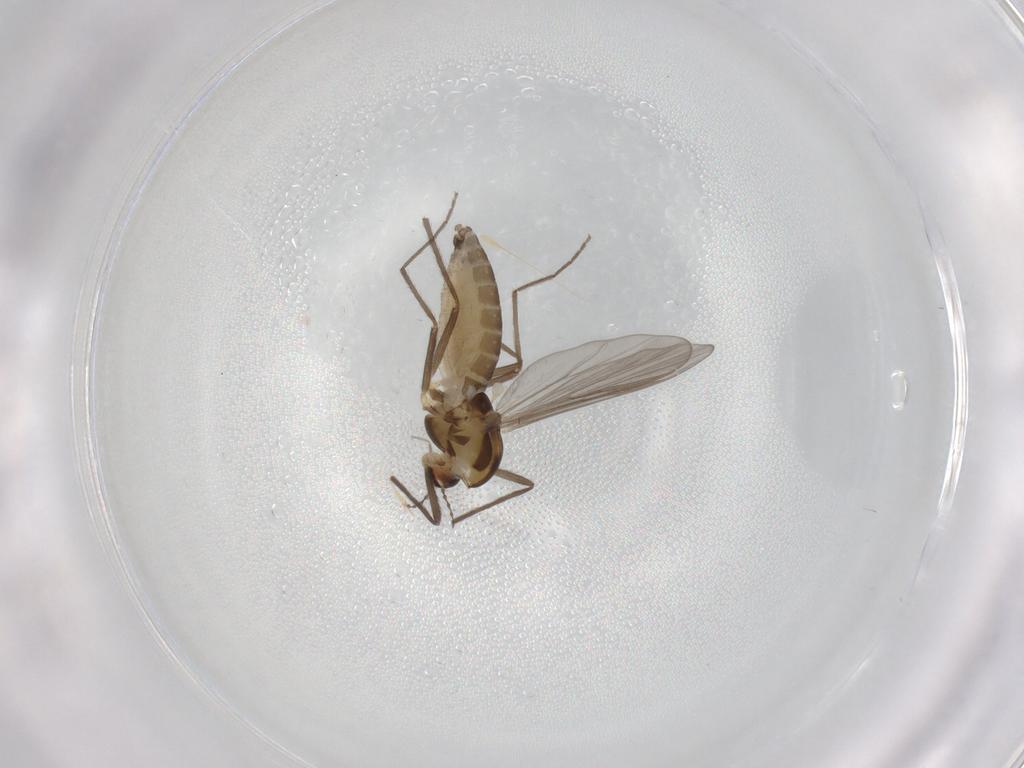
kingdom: Animalia
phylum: Arthropoda
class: Insecta
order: Diptera
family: Chironomidae
